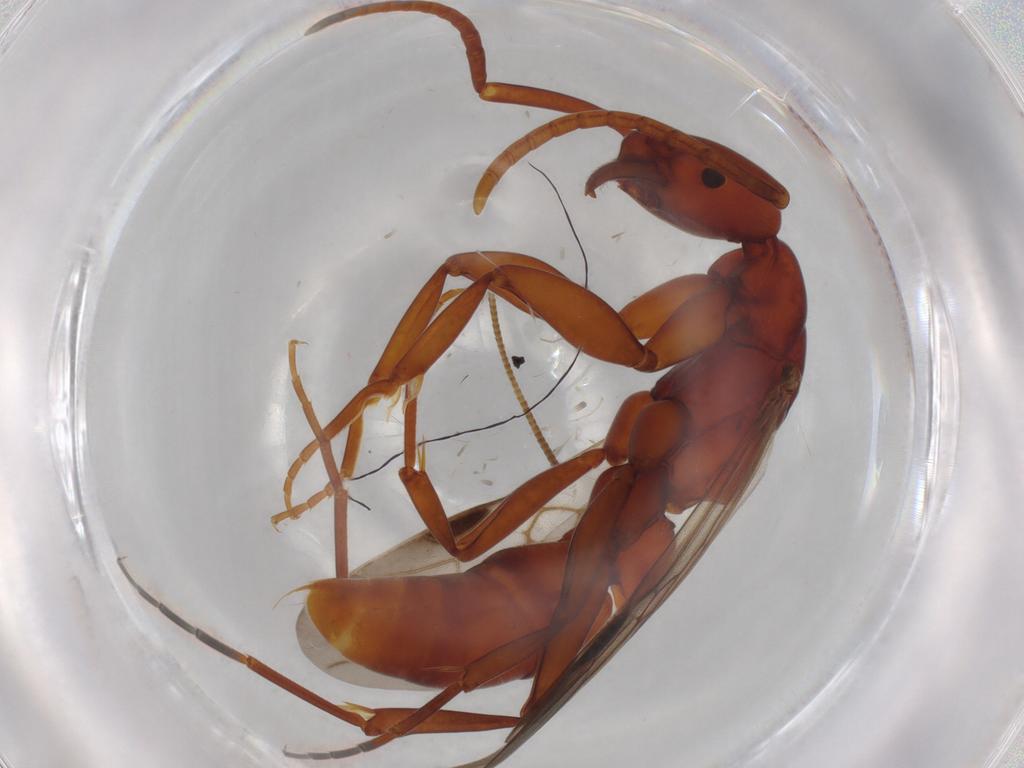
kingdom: Animalia
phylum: Arthropoda
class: Insecta
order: Hymenoptera
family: Formicidae
